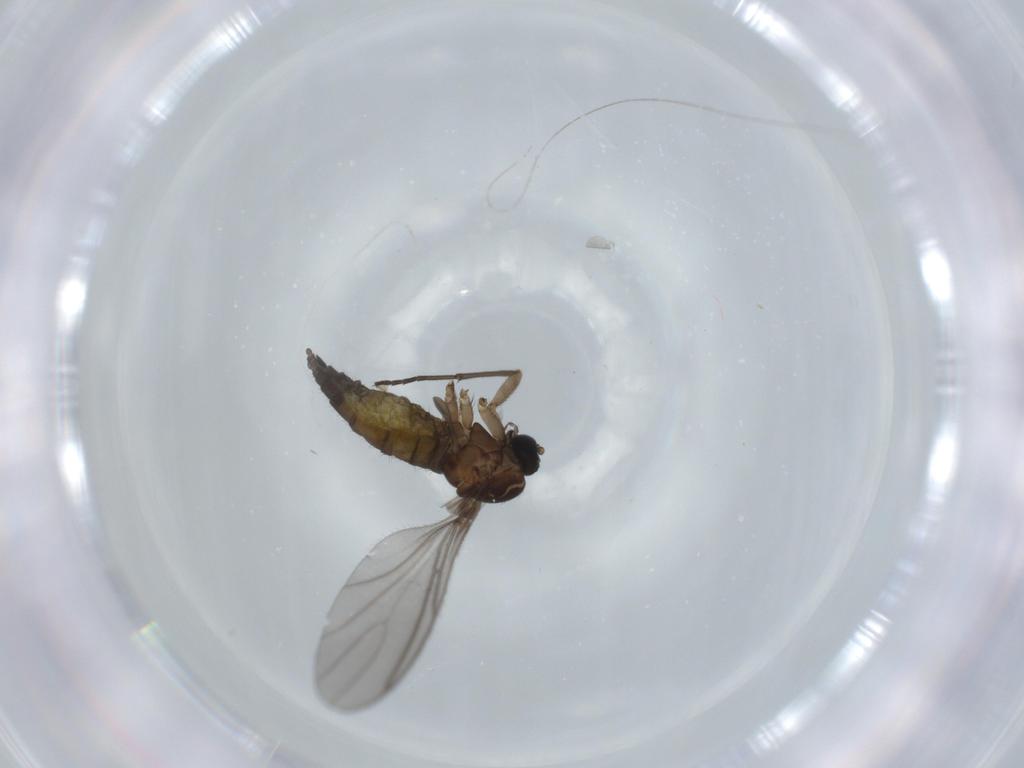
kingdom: Animalia
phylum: Arthropoda
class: Insecta
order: Diptera
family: Sciaridae
